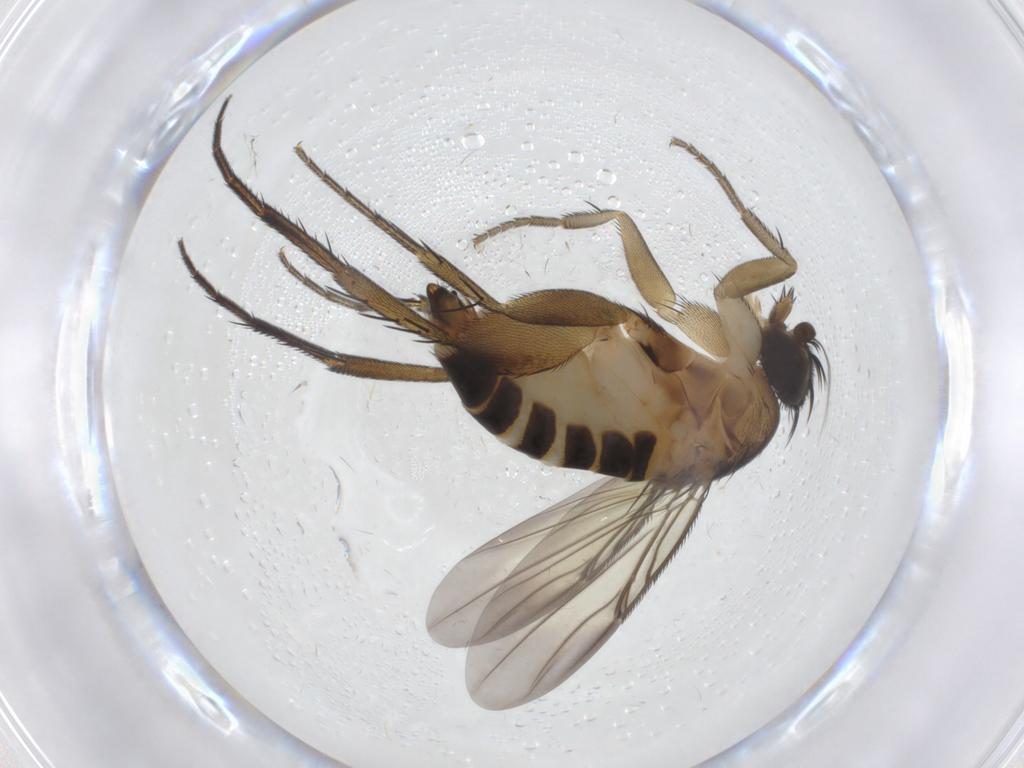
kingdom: Animalia
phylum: Arthropoda
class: Insecta
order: Diptera
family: Phoridae
